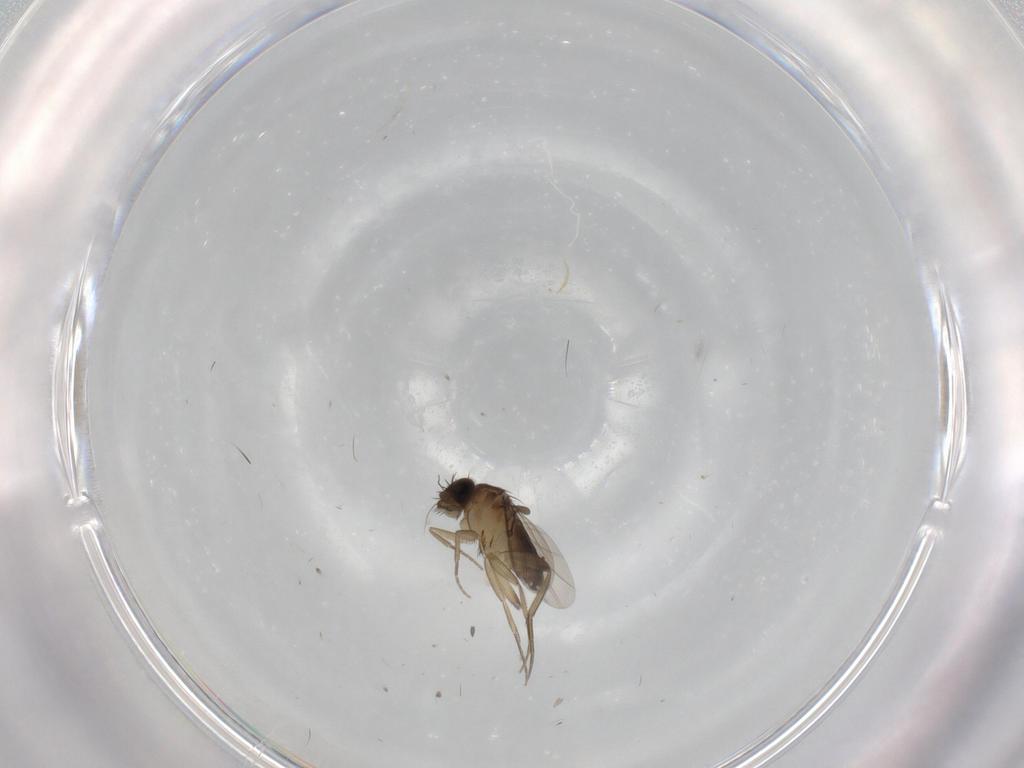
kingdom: Animalia
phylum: Arthropoda
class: Insecta
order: Diptera
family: Phoridae
